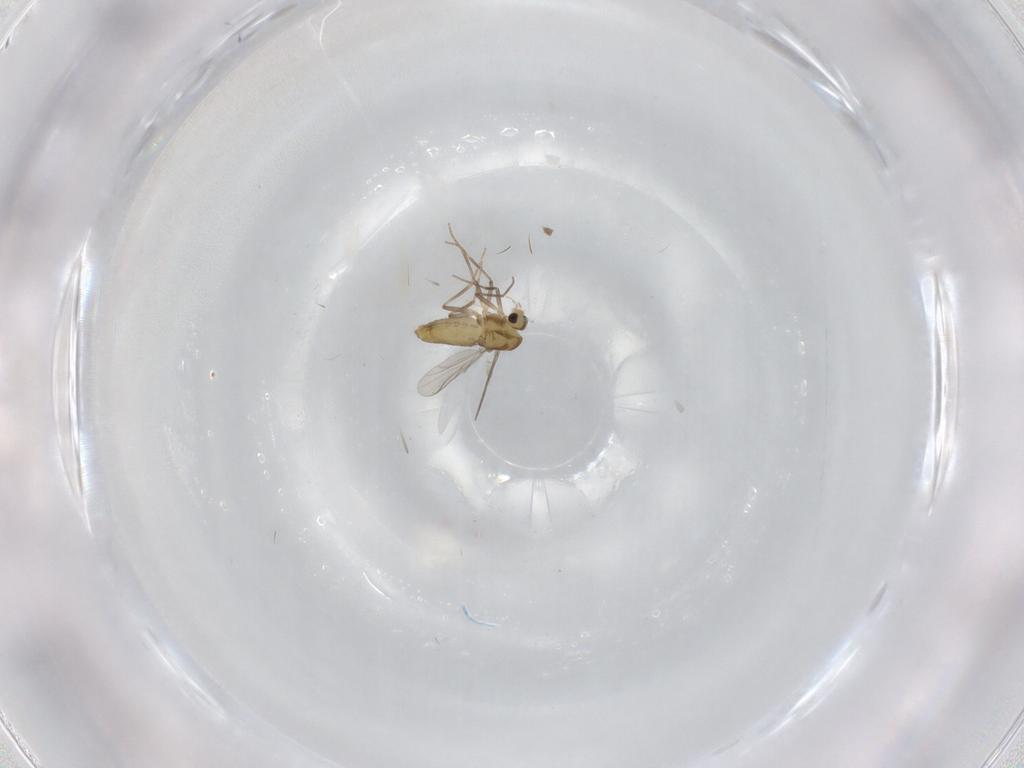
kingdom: Animalia
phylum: Arthropoda
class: Insecta
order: Diptera
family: Chironomidae
